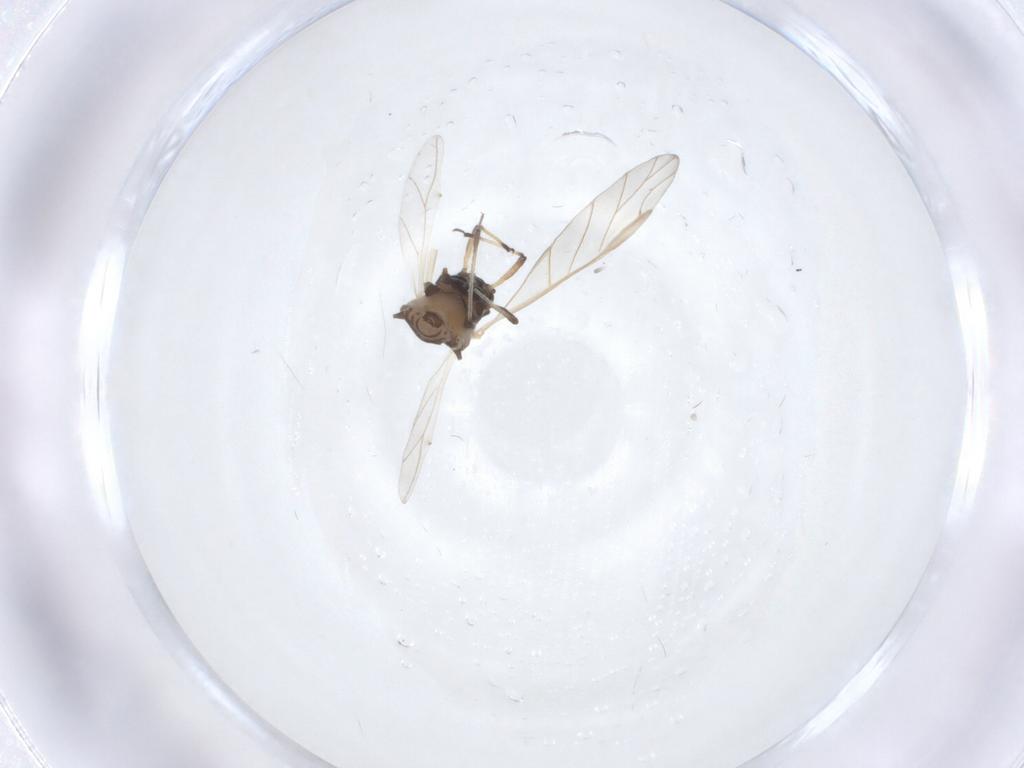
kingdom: Animalia
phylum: Arthropoda
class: Insecta
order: Hemiptera
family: Aphididae
